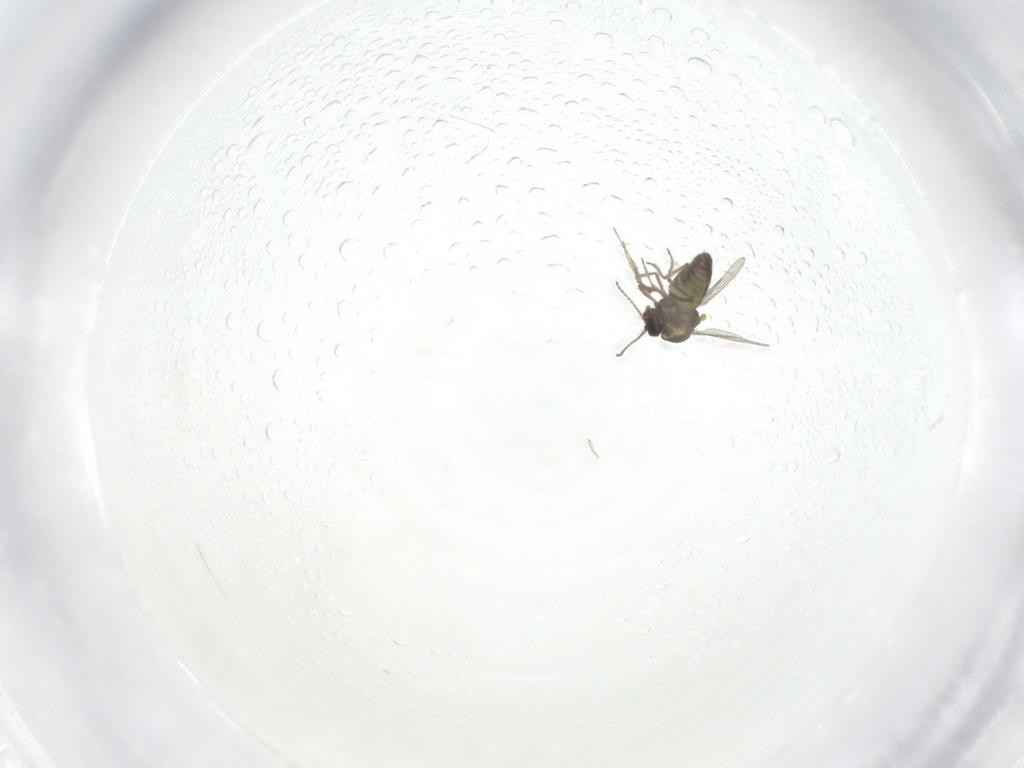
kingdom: Animalia
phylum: Arthropoda
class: Insecta
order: Diptera
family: Ceratopogonidae
